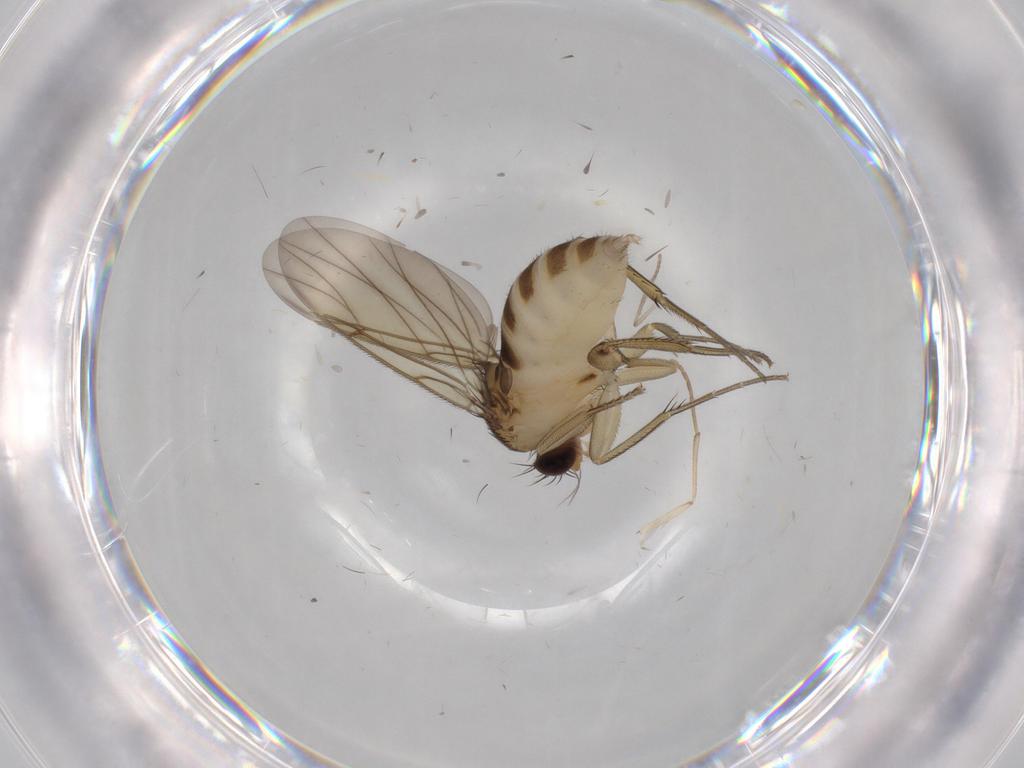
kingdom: Animalia
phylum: Arthropoda
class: Insecta
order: Diptera
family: Phoridae
